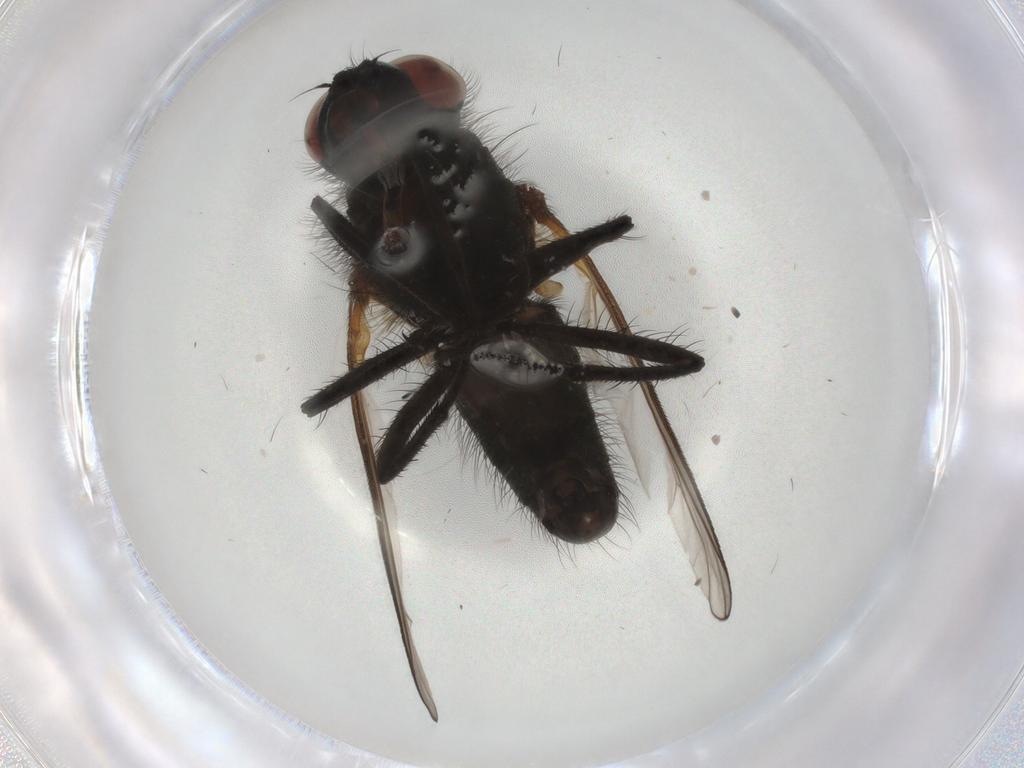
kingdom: Animalia
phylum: Arthropoda
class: Insecta
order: Diptera
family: Anthomyiidae
